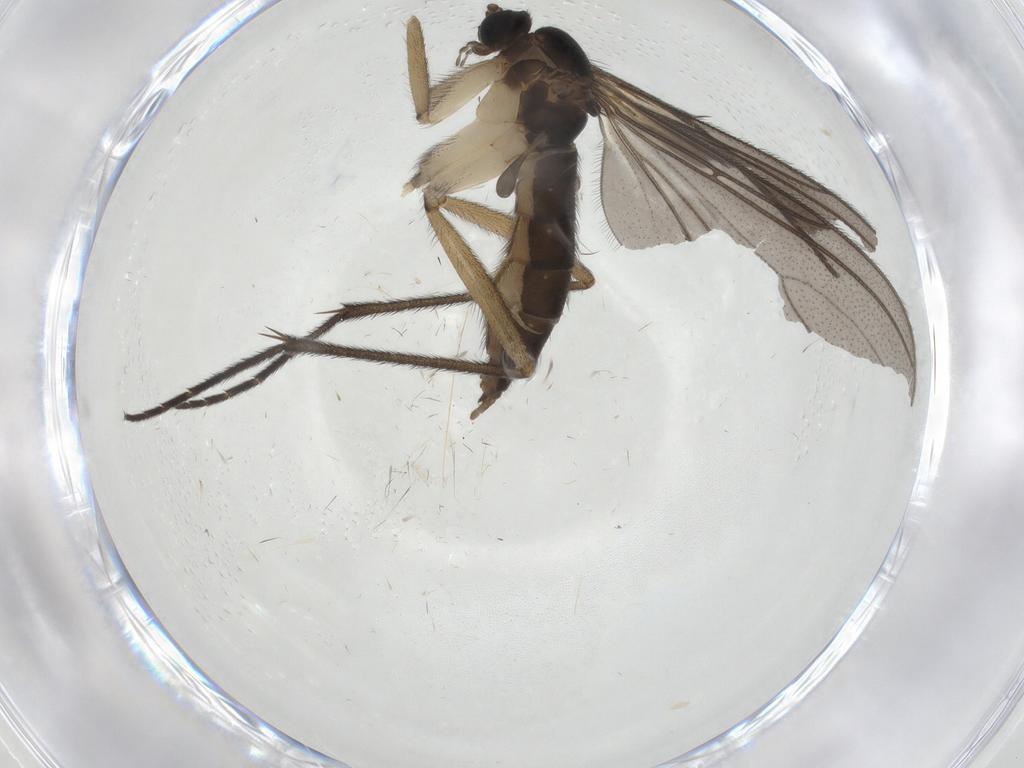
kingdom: Animalia
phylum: Arthropoda
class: Insecta
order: Diptera
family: Sciaridae
